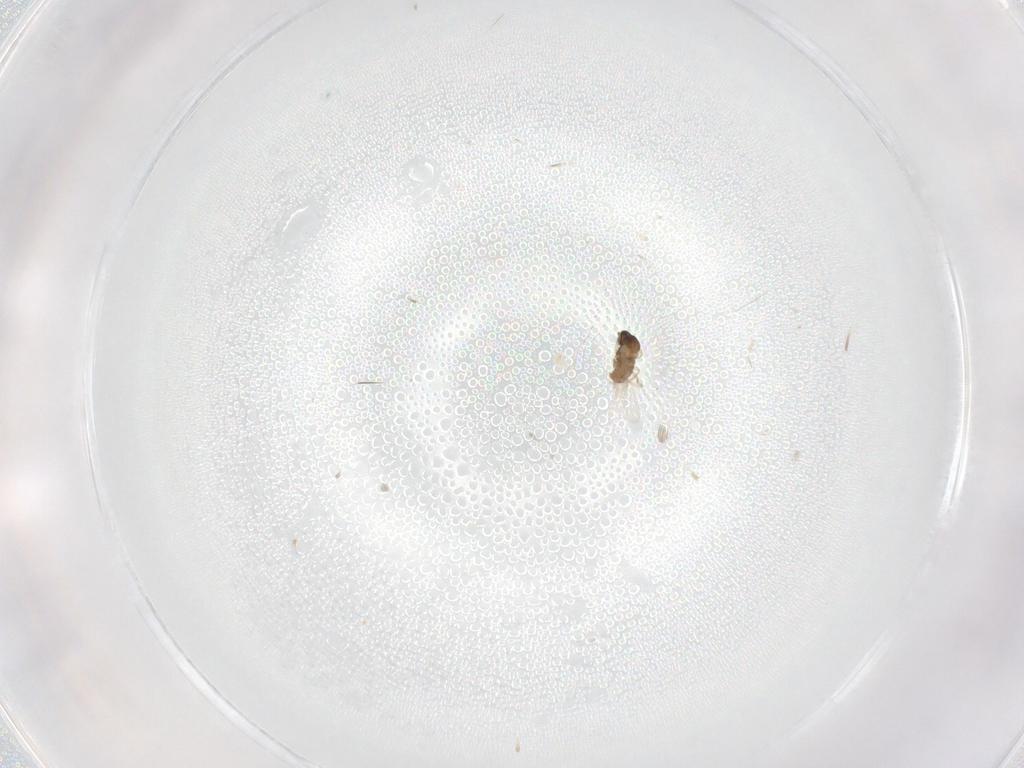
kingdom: Animalia
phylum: Arthropoda
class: Insecta
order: Diptera
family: Cecidomyiidae
